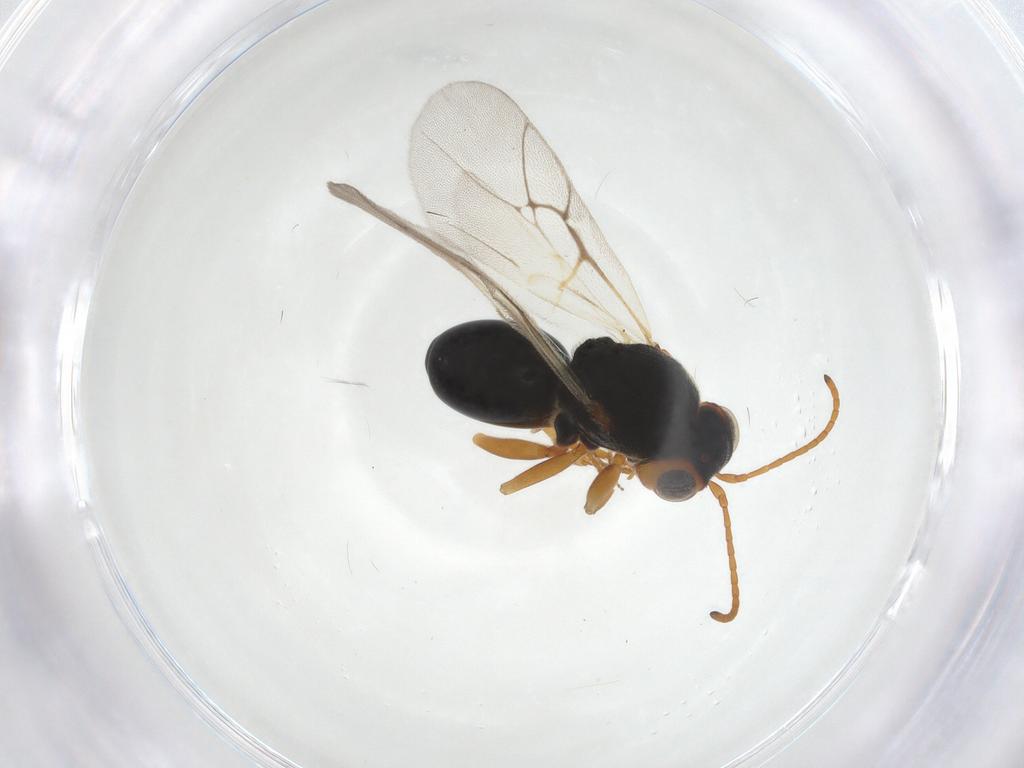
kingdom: Animalia
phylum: Arthropoda
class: Insecta
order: Hymenoptera
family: Cynipidae
